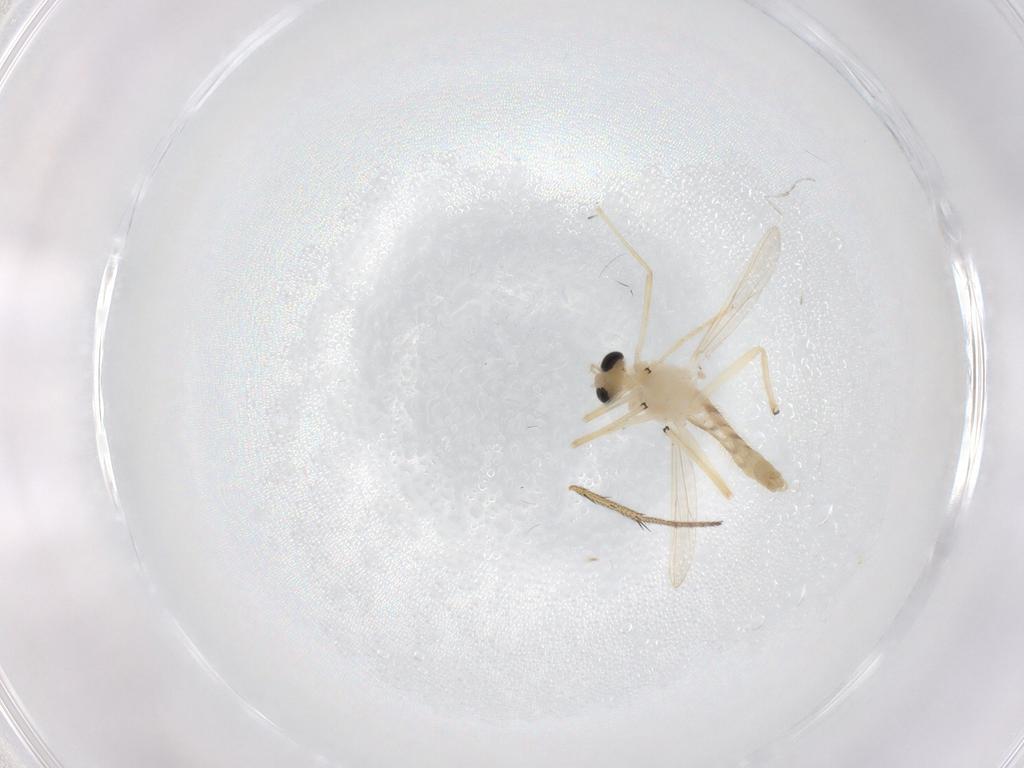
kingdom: Animalia
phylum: Arthropoda
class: Insecta
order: Diptera
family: Chironomidae
